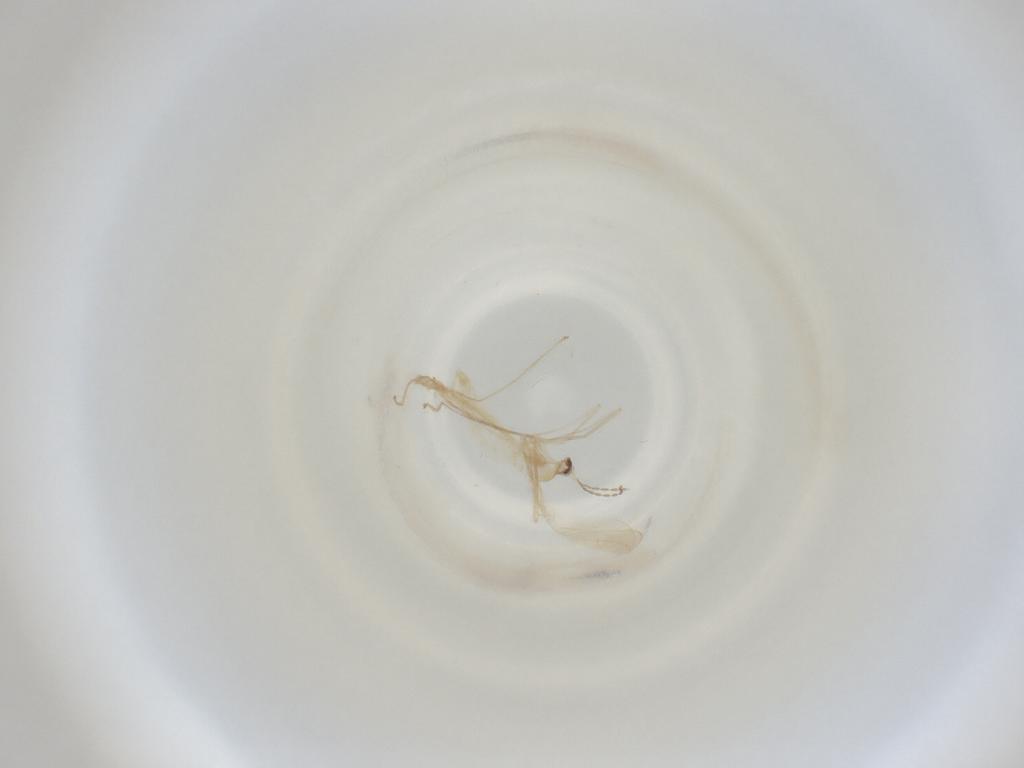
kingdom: Animalia
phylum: Arthropoda
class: Insecta
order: Diptera
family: Cecidomyiidae
